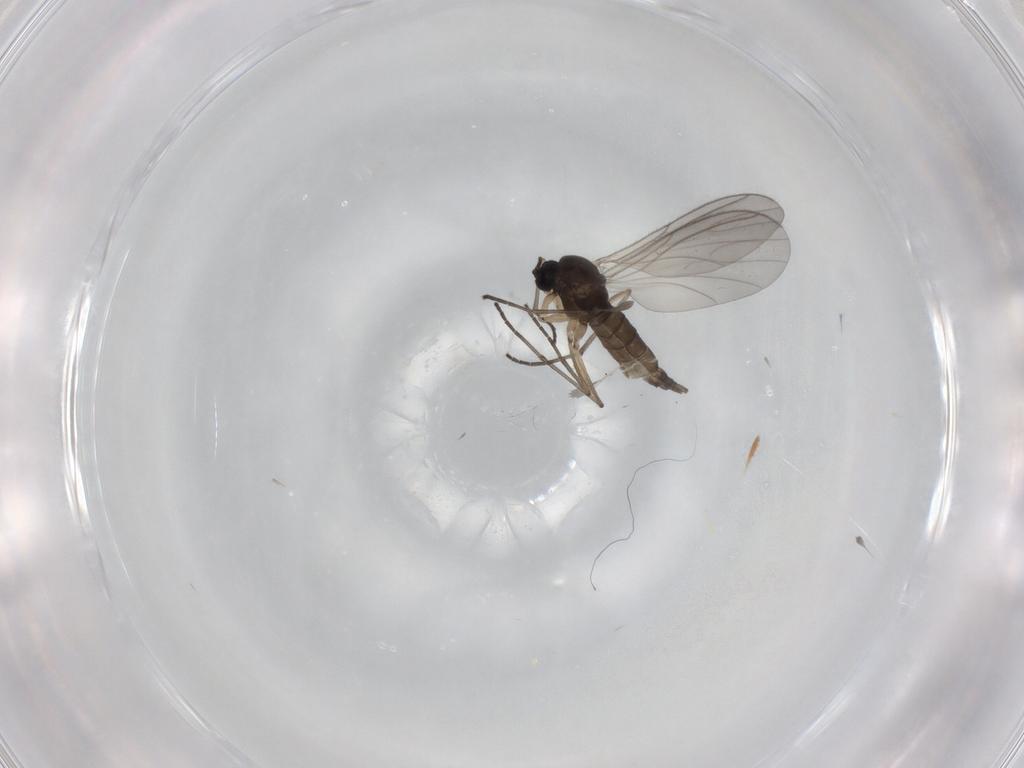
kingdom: Animalia
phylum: Arthropoda
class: Insecta
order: Diptera
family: Sciaridae
